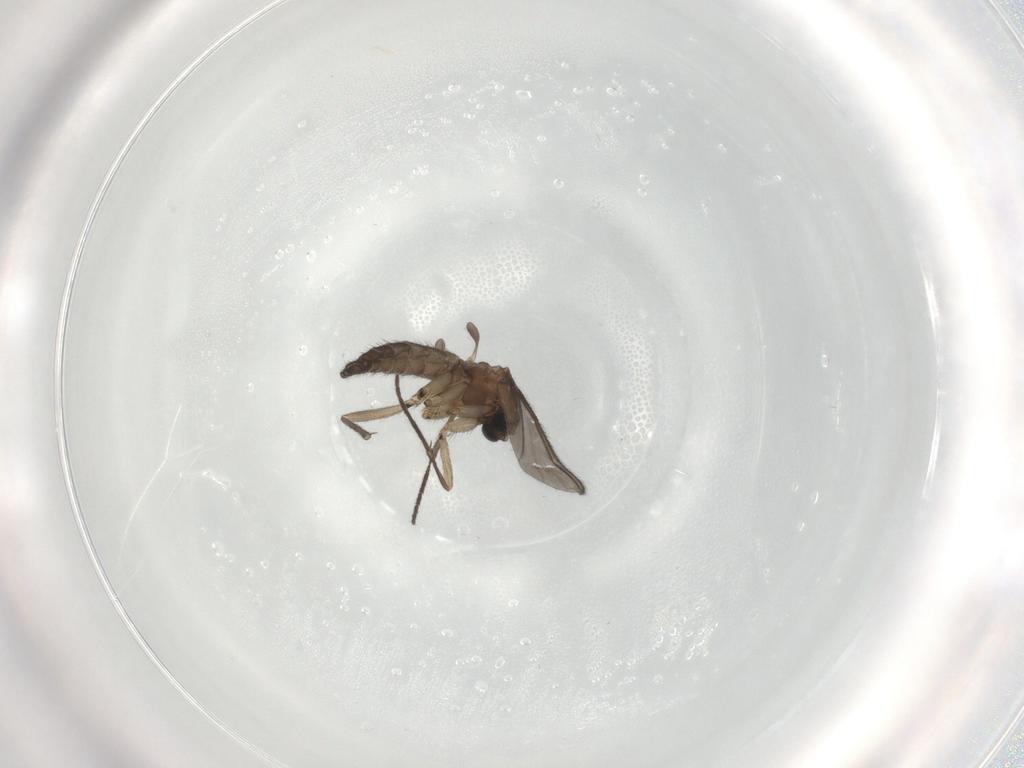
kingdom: Animalia
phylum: Arthropoda
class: Insecta
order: Diptera
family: Sciaridae
